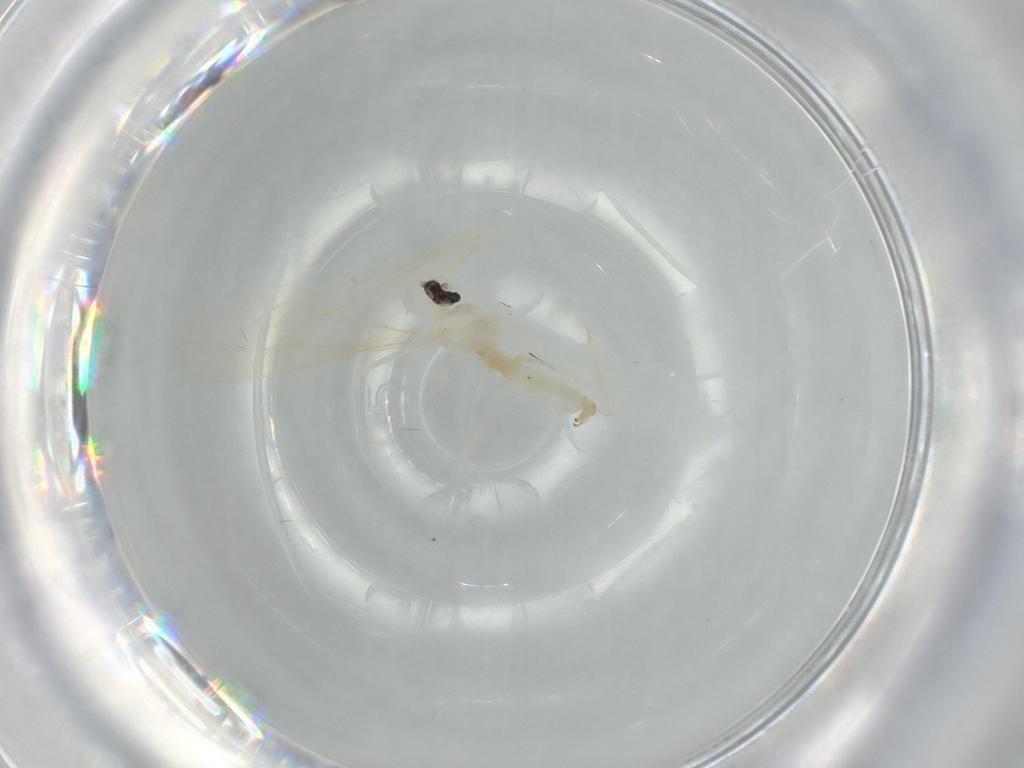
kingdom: Animalia
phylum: Arthropoda
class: Insecta
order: Diptera
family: Cecidomyiidae
